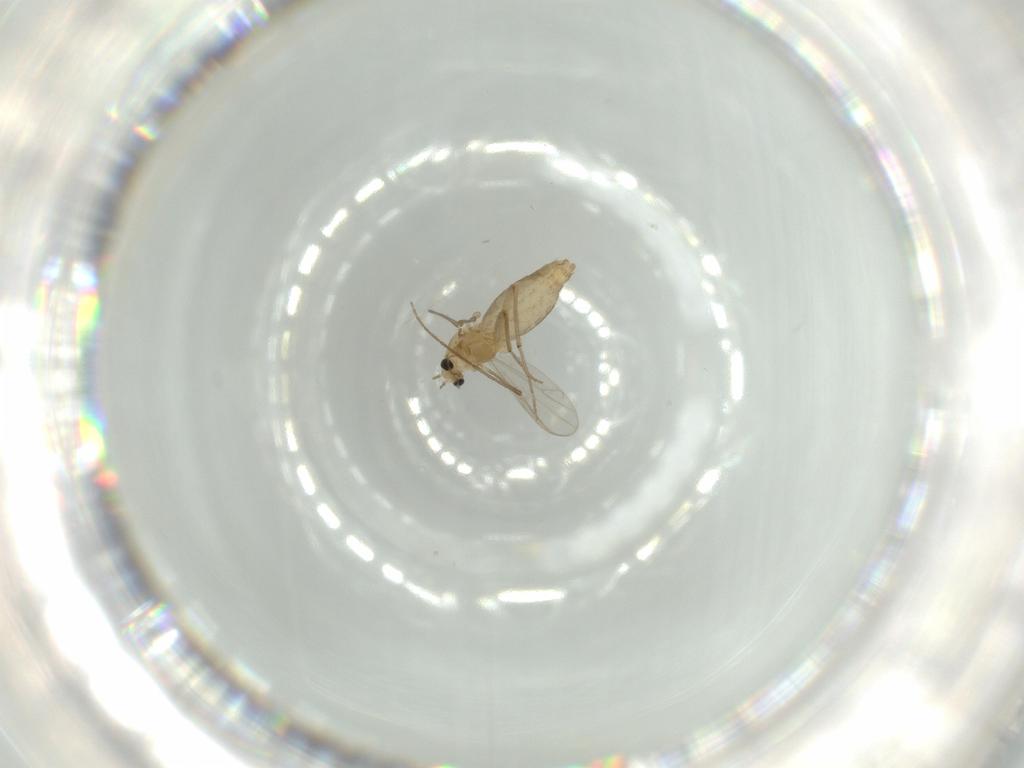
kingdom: Animalia
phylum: Arthropoda
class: Insecta
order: Diptera
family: Chironomidae
